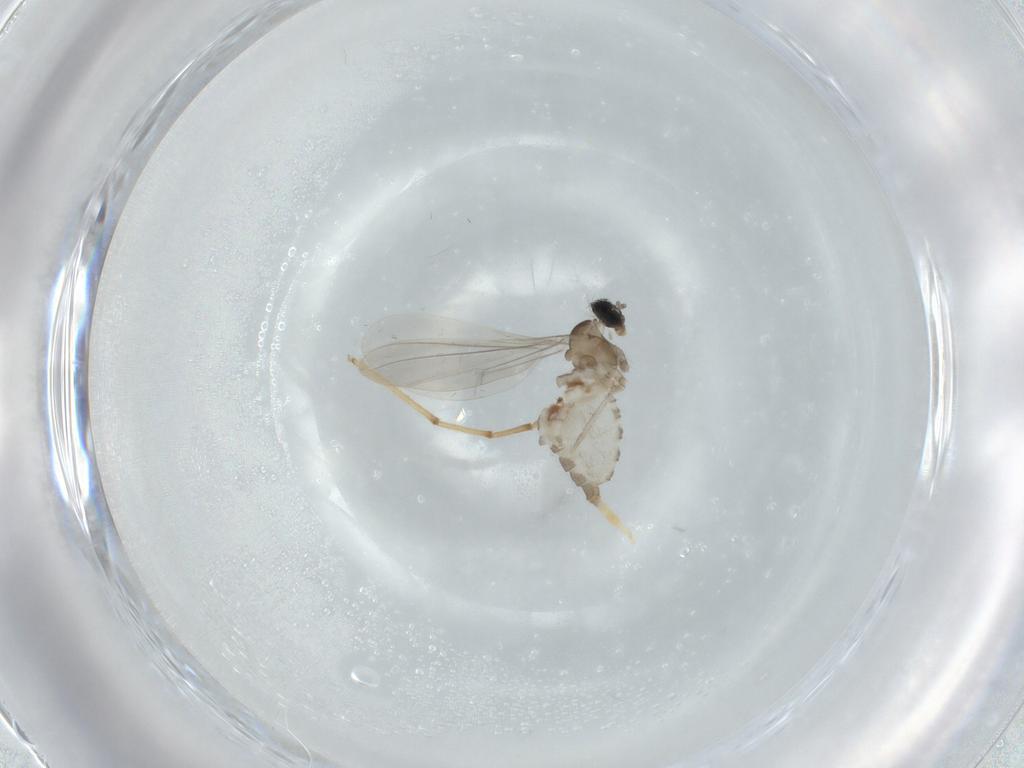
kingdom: Animalia
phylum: Arthropoda
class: Insecta
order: Diptera
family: Cecidomyiidae
